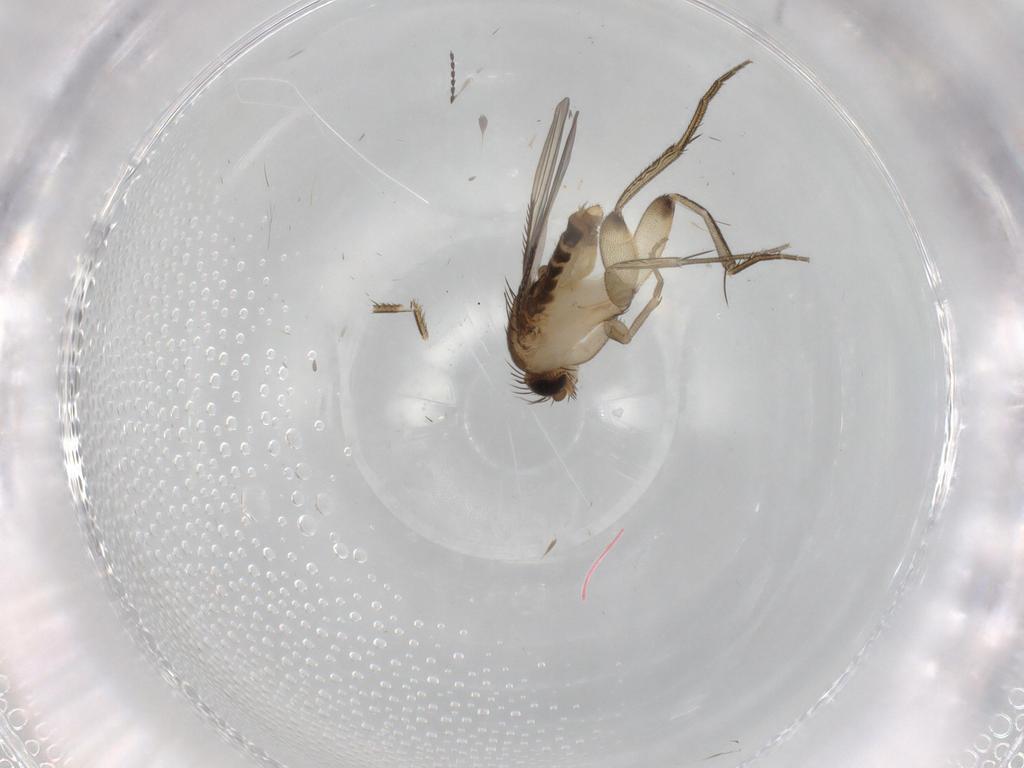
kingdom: Animalia
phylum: Arthropoda
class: Insecta
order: Diptera
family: Phoridae
